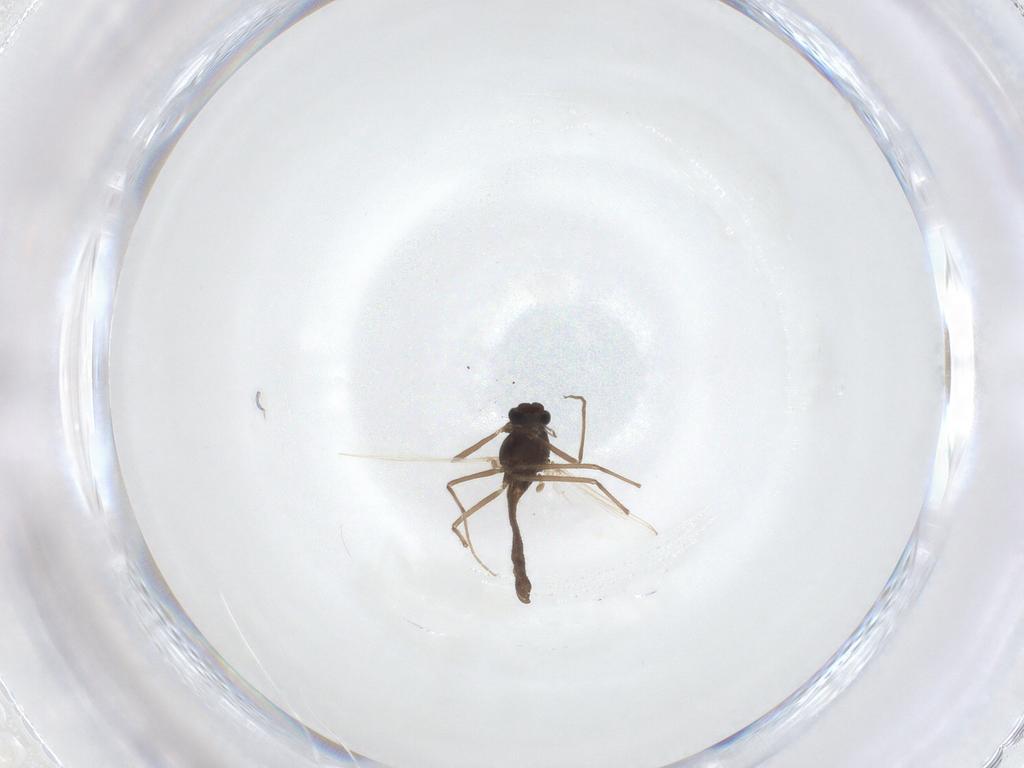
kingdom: Animalia
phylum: Arthropoda
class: Insecta
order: Diptera
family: Chironomidae
